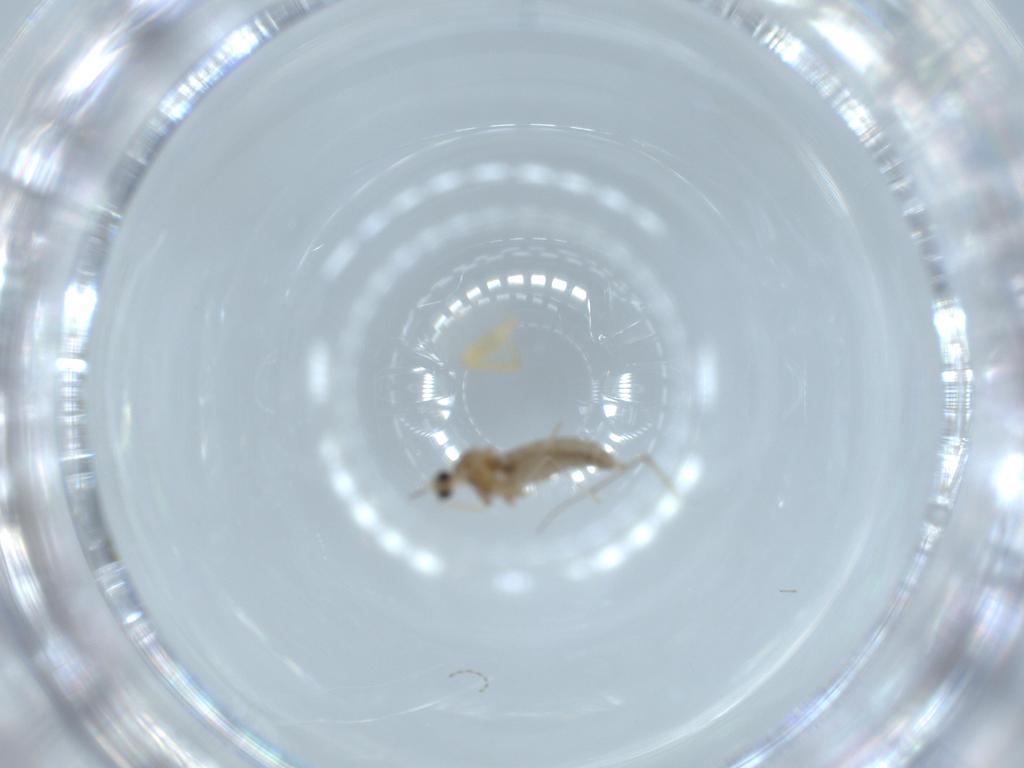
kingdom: Animalia
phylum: Arthropoda
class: Insecta
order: Diptera
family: Cecidomyiidae
